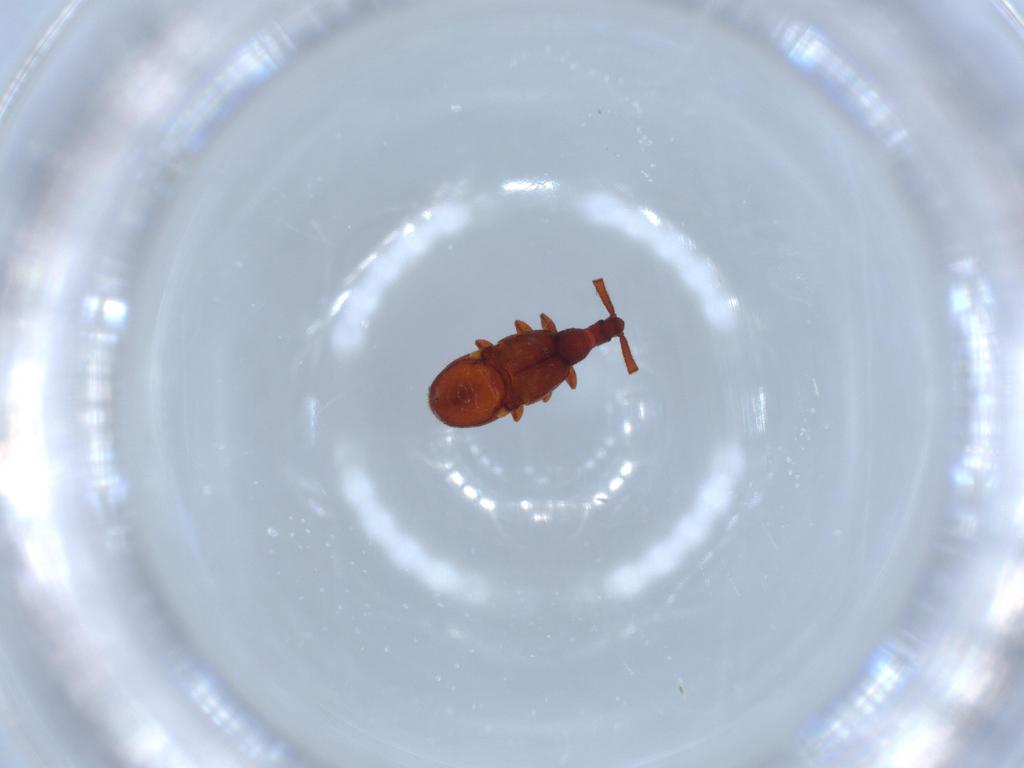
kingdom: Animalia
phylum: Arthropoda
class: Insecta
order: Coleoptera
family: Staphylinidae
